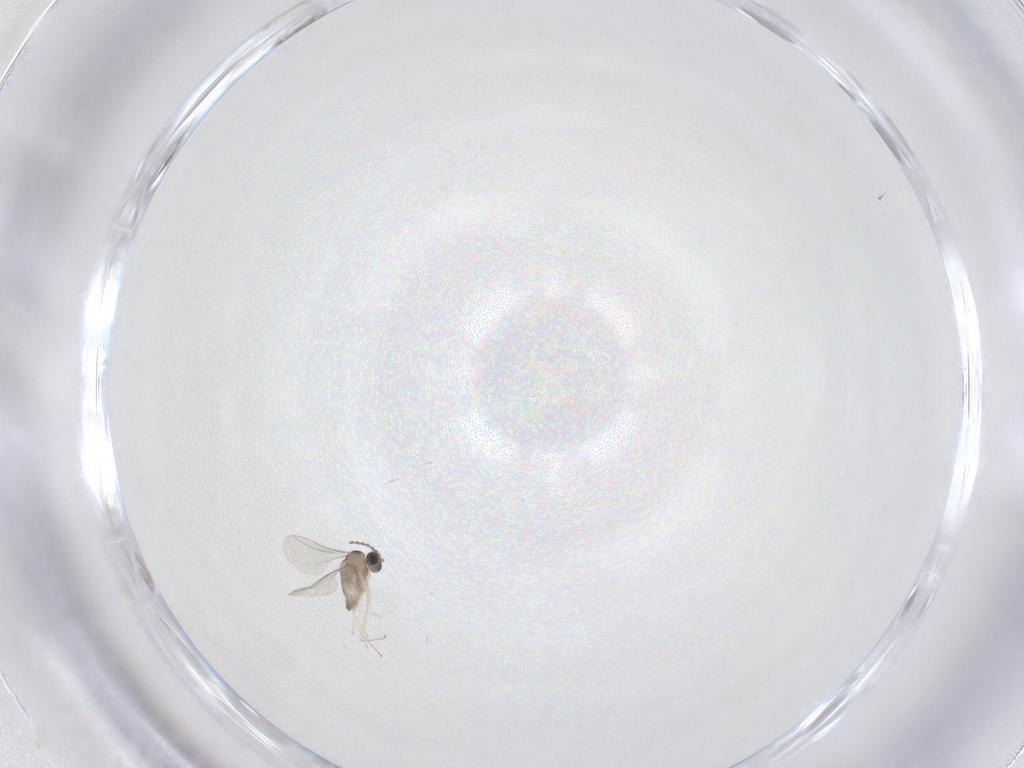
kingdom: Animalia
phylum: Arthropoda
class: Insecta
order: Diptera
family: Cecidomyiidae
